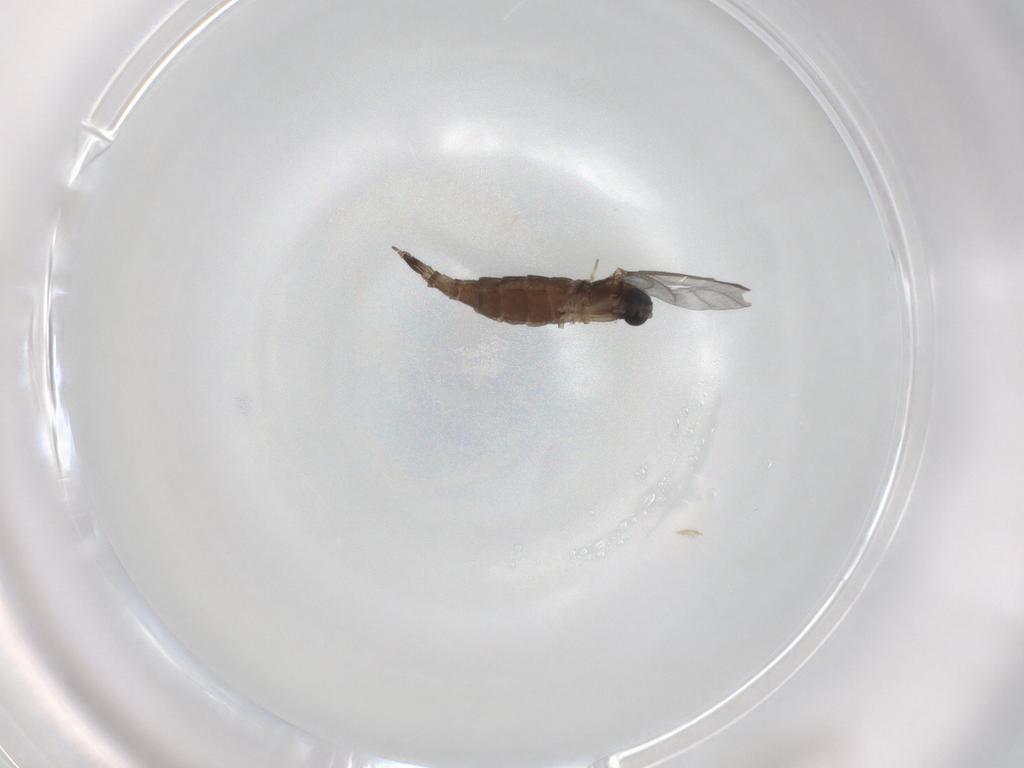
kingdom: Animalia
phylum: Arthropoda
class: Insecta
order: Diptera
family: Sciaridae
